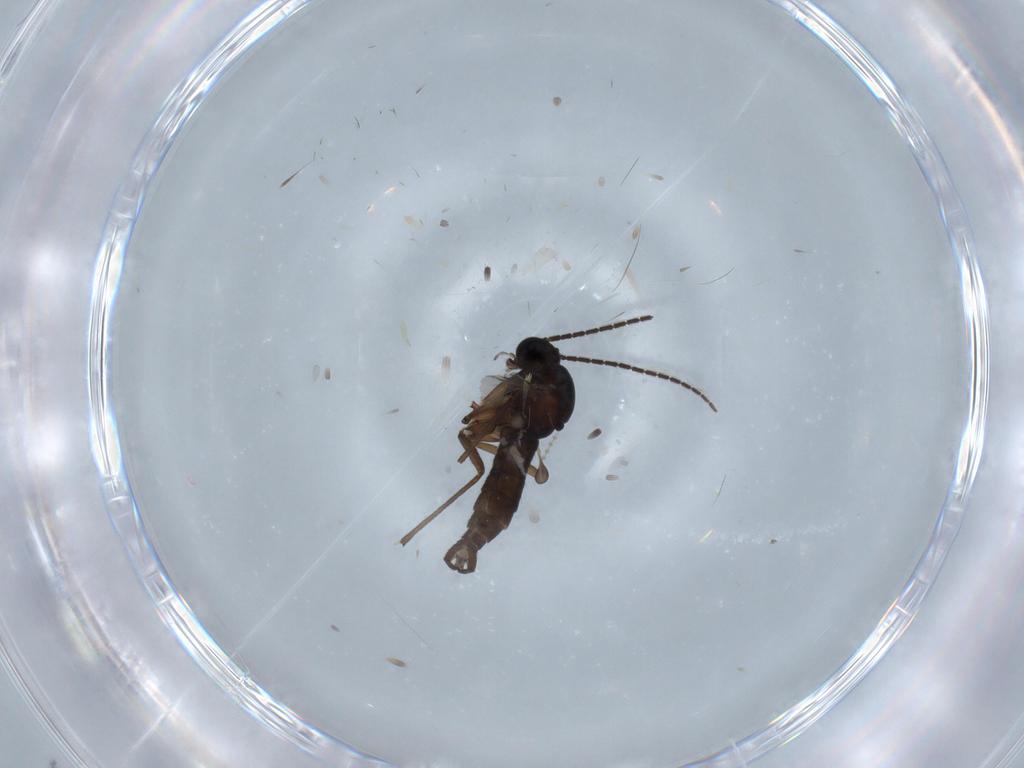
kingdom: Animalia
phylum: Arthropoda
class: Insecta
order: Diptera
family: Sciaridae
